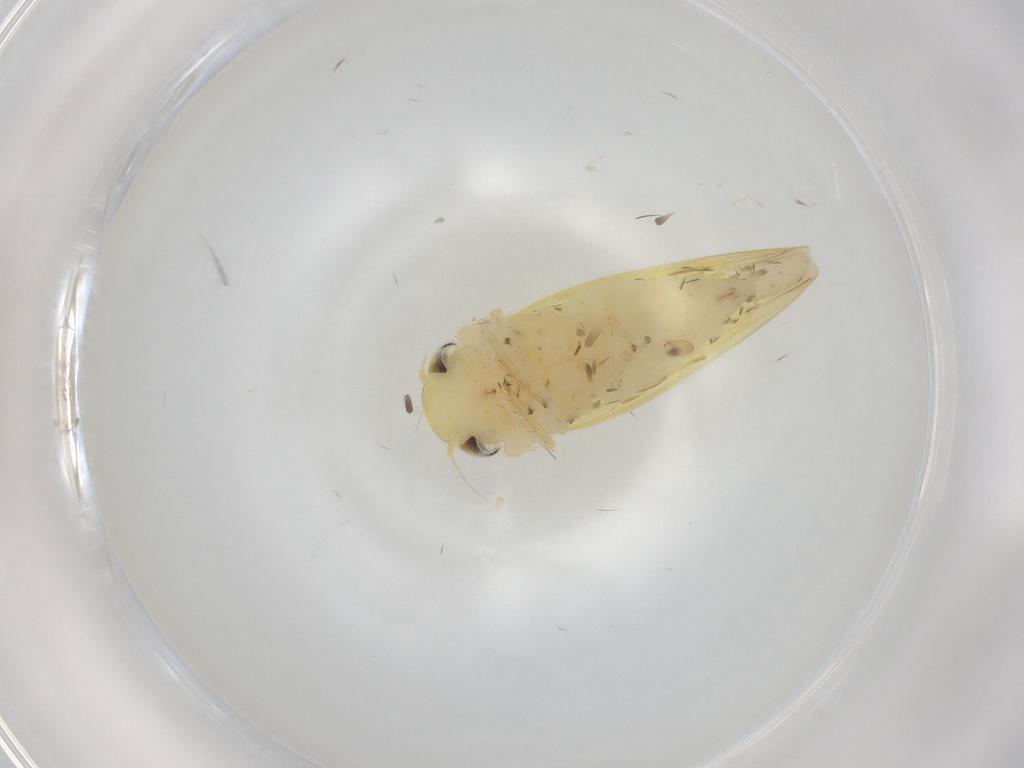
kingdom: Animalia
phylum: Arthropoda
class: Insecta
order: Hemiptera
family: Cicadellidae
